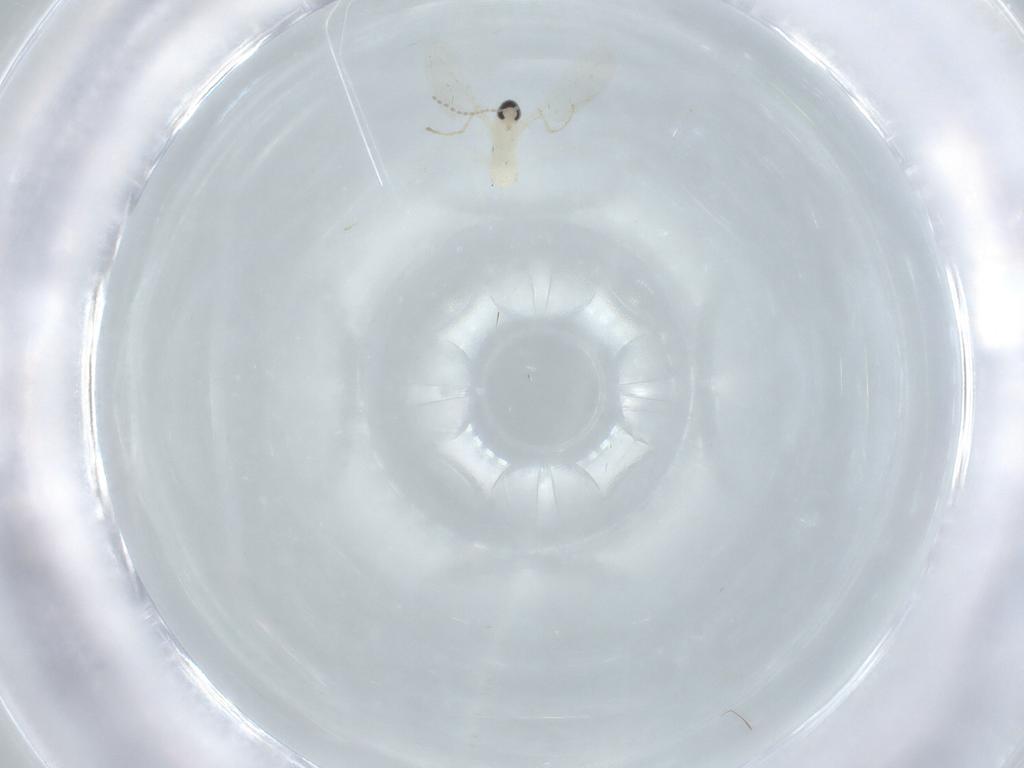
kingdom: Animalia
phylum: Arthropoda
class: Insecta
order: Diptera
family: Cecidomyiidae
